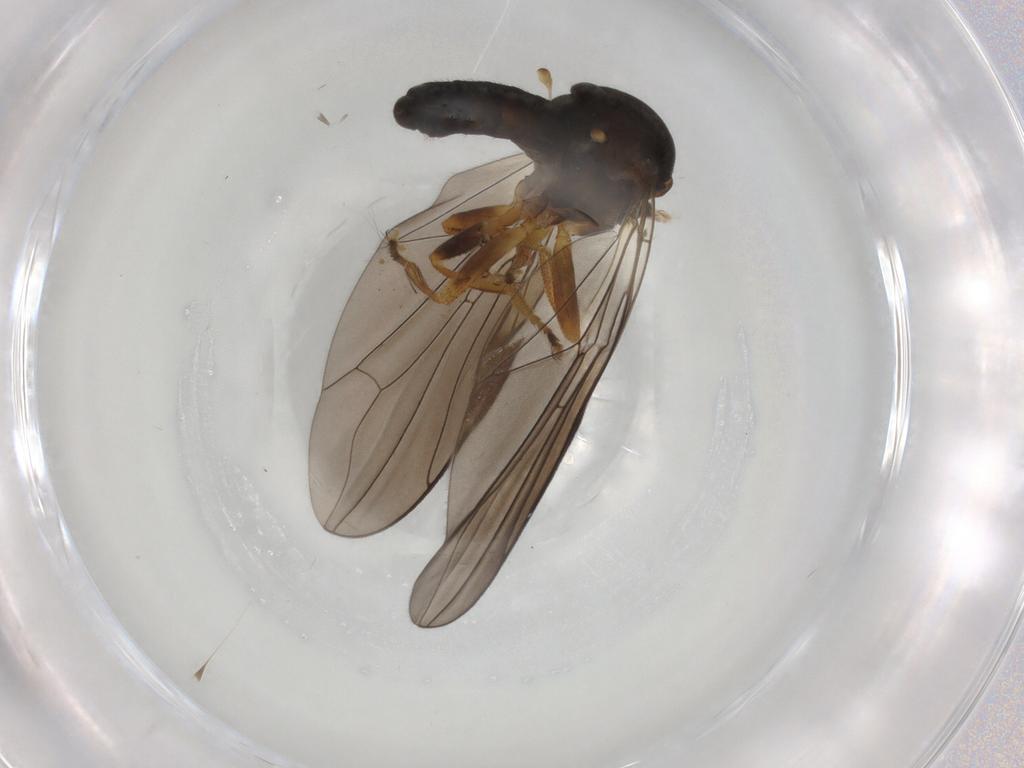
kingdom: Animalia
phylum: Arthropoda
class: Insecta
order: Diptera
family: Pipunculidae
